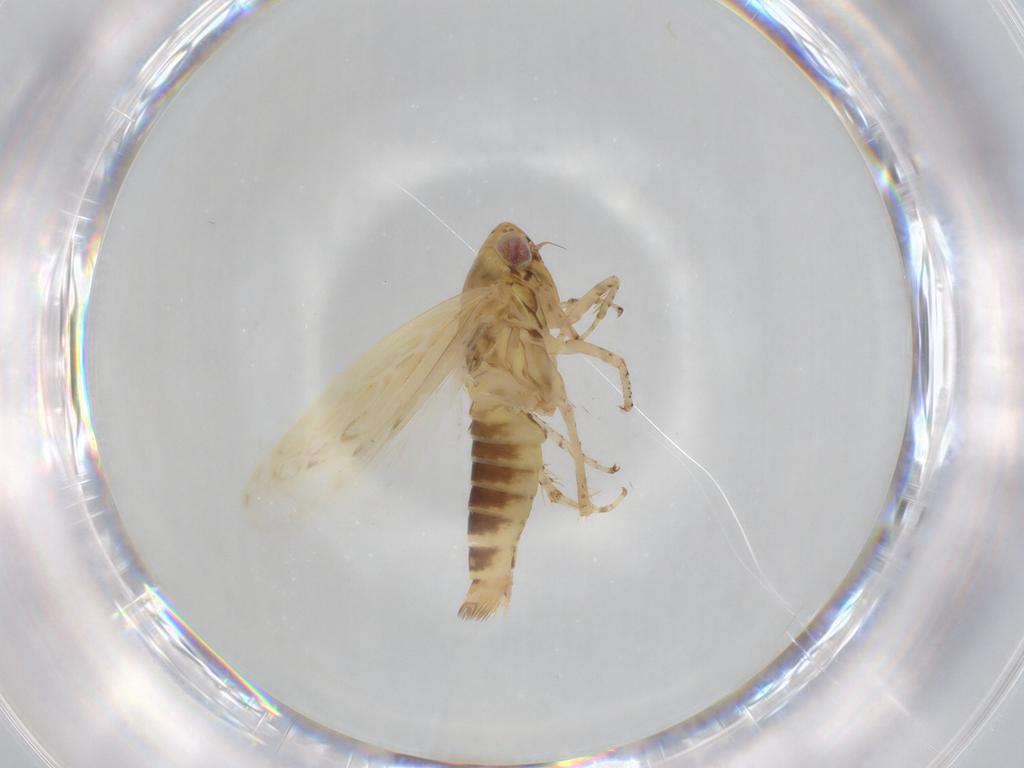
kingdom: Animalia
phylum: Arthropoda
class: Insecta
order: Hemiptera
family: Cicadellidae
